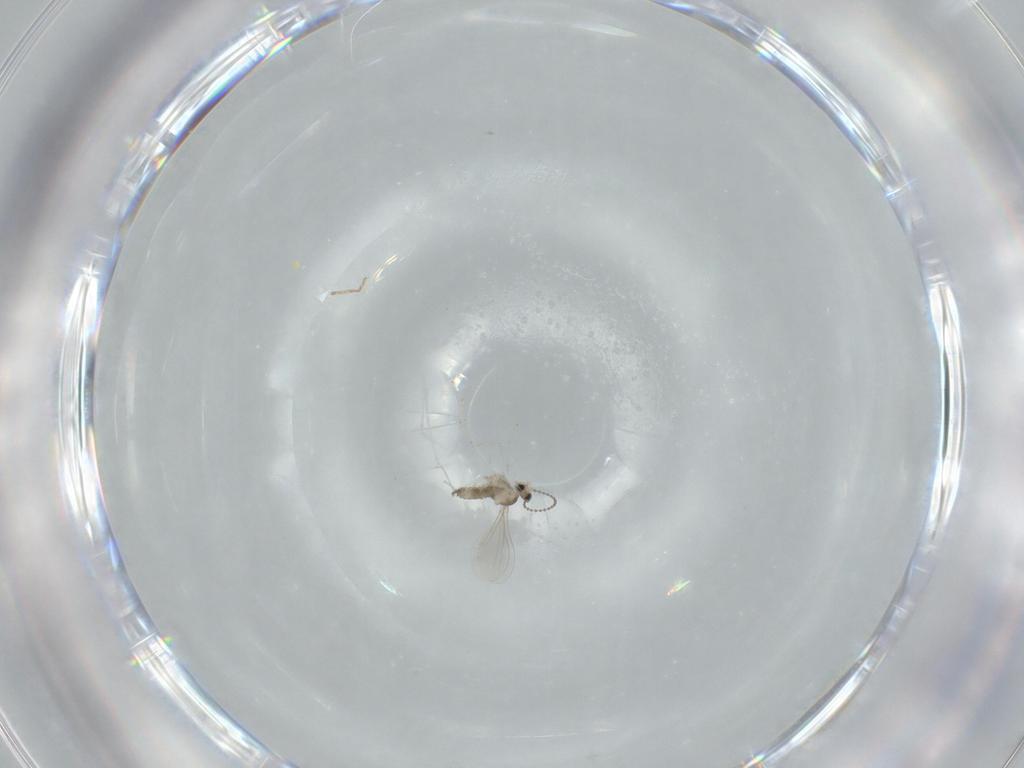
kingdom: Animalia
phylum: Arthropoda
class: Insecta
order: Diptera
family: Cecidomyiidae
